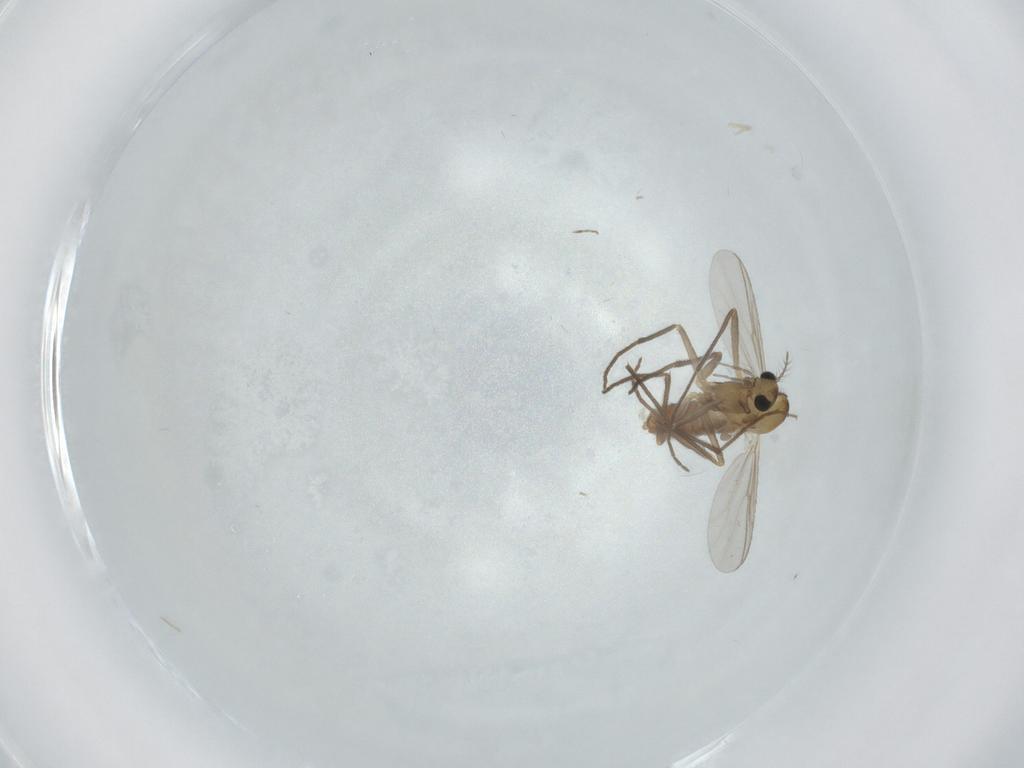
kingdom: Animalia
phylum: Arthropoda
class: Insecta
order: Diptera
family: Chironomidae
